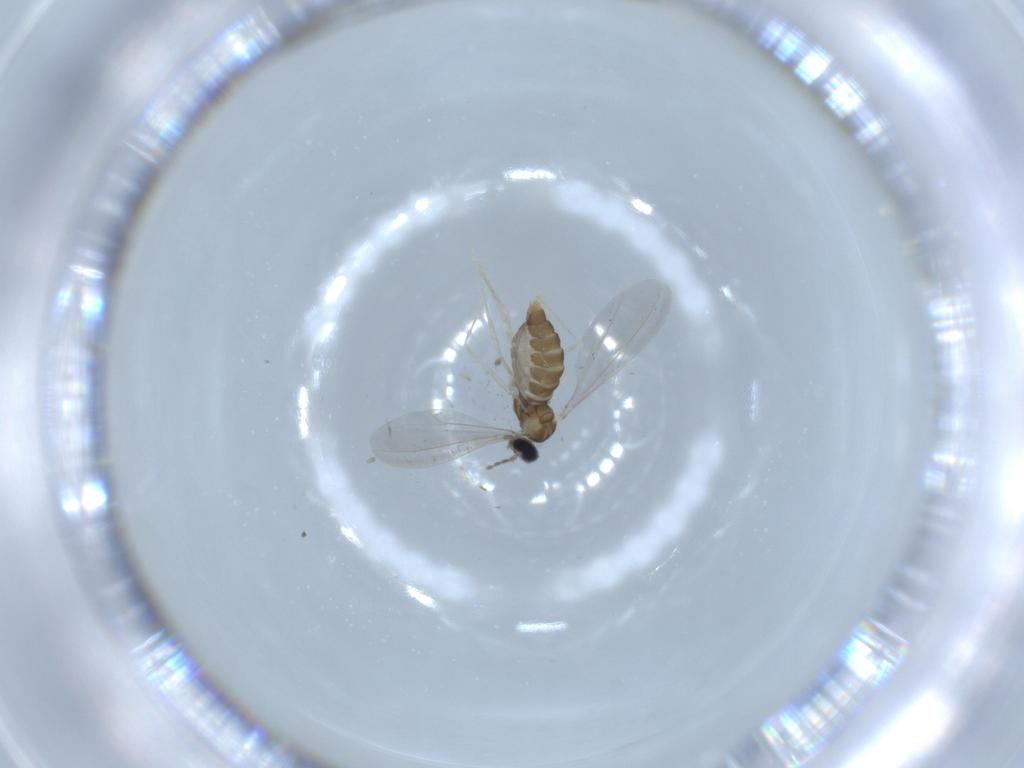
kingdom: Animalia
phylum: Arthropoda
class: Insecta
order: Diptera
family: Cecidomyiidae
